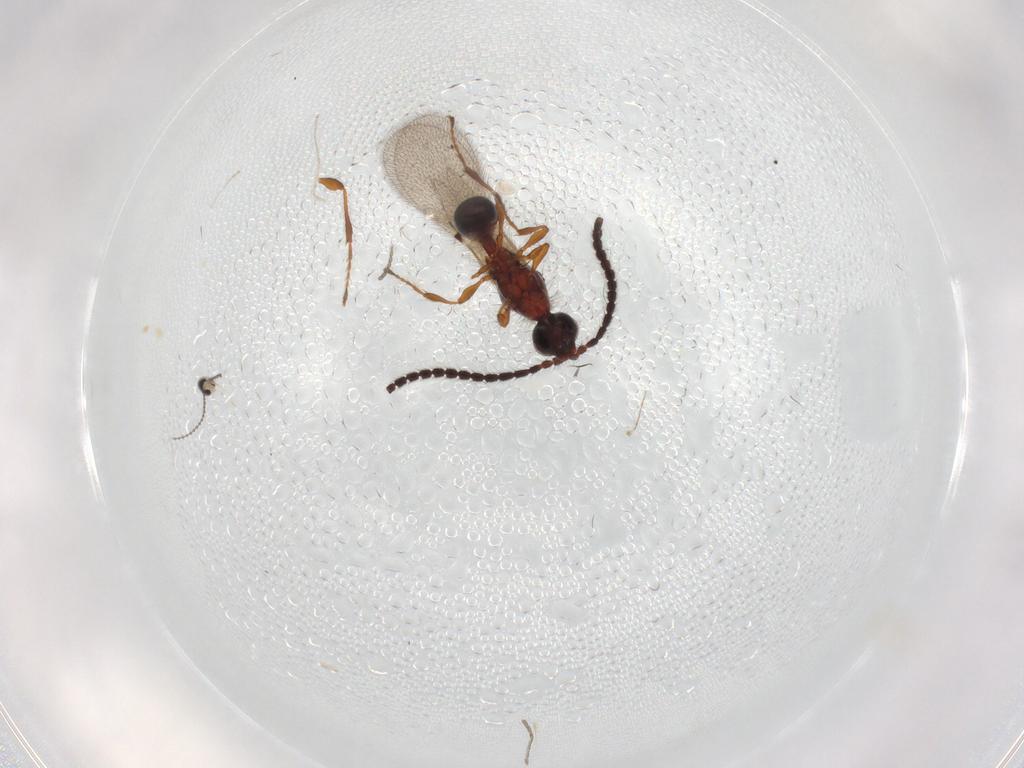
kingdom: Animalia
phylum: Arthropoda
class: Insecta
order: Hymenoptera
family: Diapriidae
